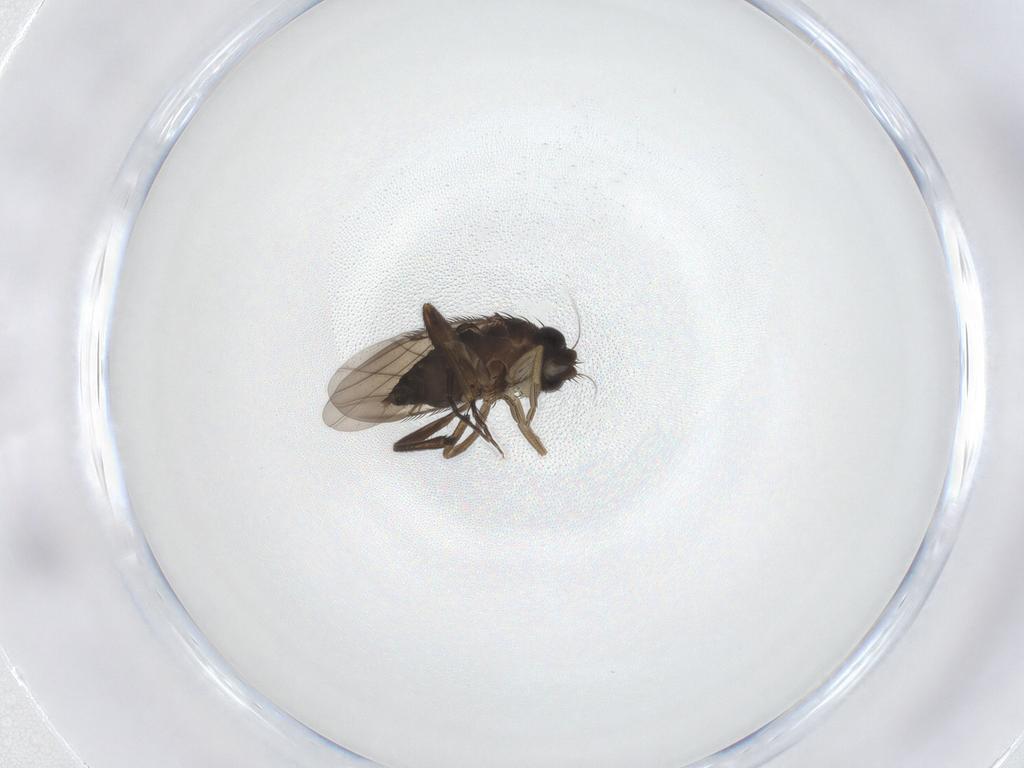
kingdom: Animalia
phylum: Arthropoda
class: Insecta
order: Diptera
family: Phoridae
